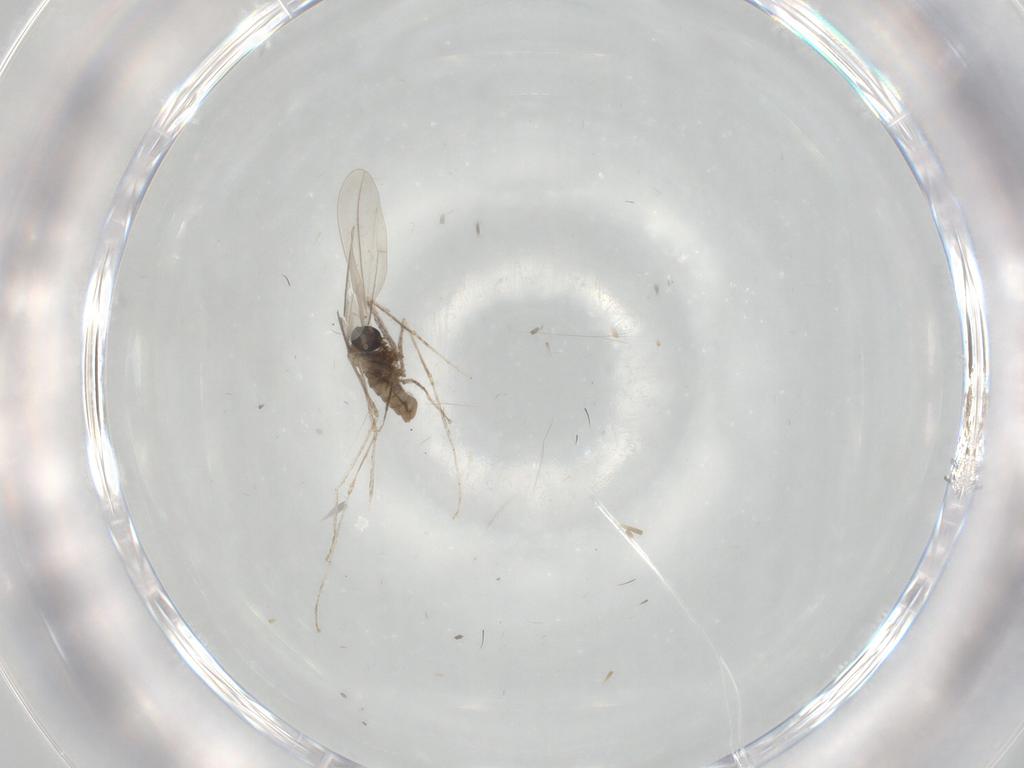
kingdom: Animalia
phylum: Arthropoda
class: Insecta
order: Diptera
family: Cecidomyiidae
